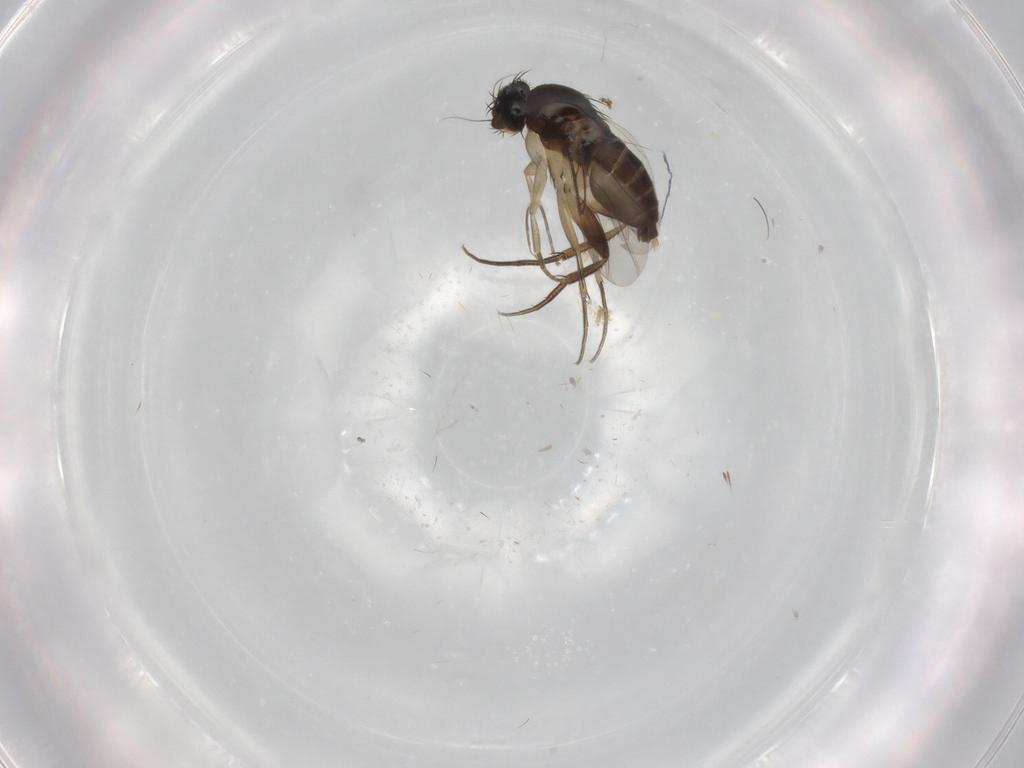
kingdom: Animalia
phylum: Arthropoda
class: Insecta
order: Diptera
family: Phoridae
